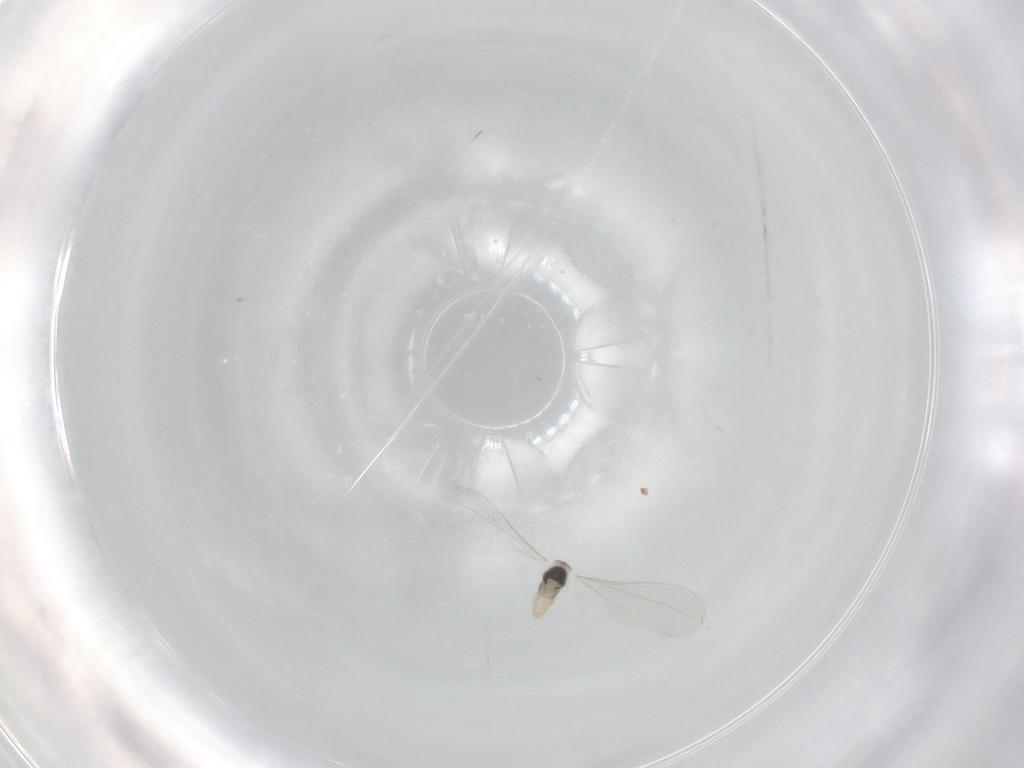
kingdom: Animalia
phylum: Arthropoda
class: Insecta
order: Diptera
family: Cecidomyiidae
